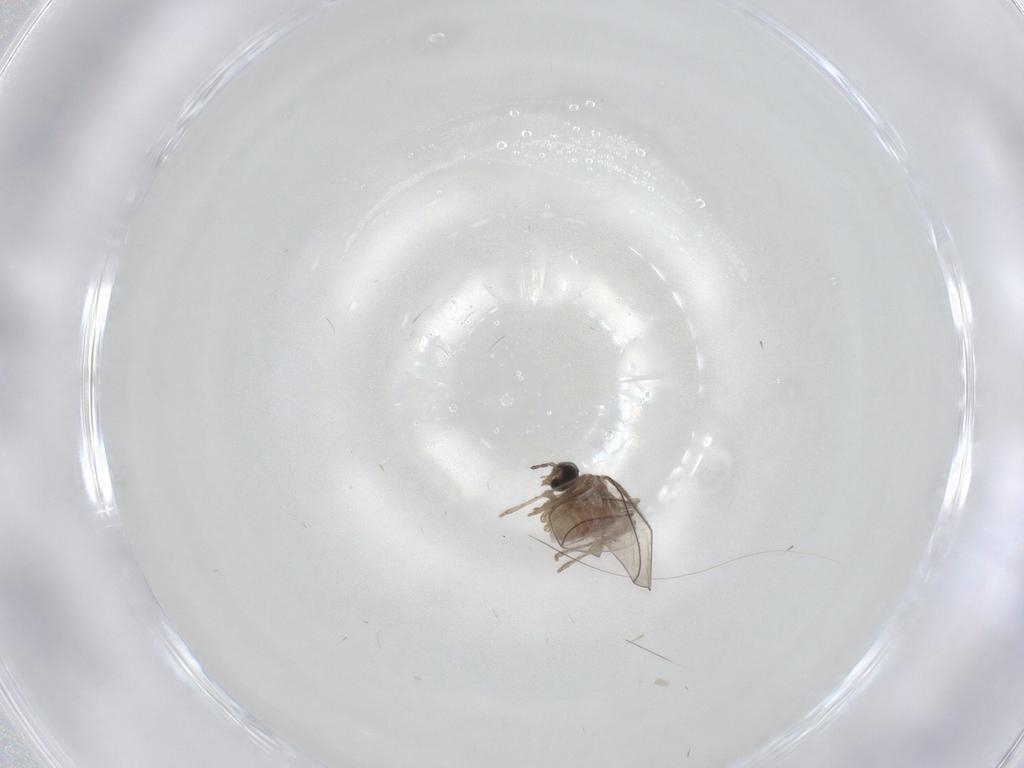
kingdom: Animalia
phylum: Arthropoda
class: Insecta
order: Diptera
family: Cecidomyiidae
